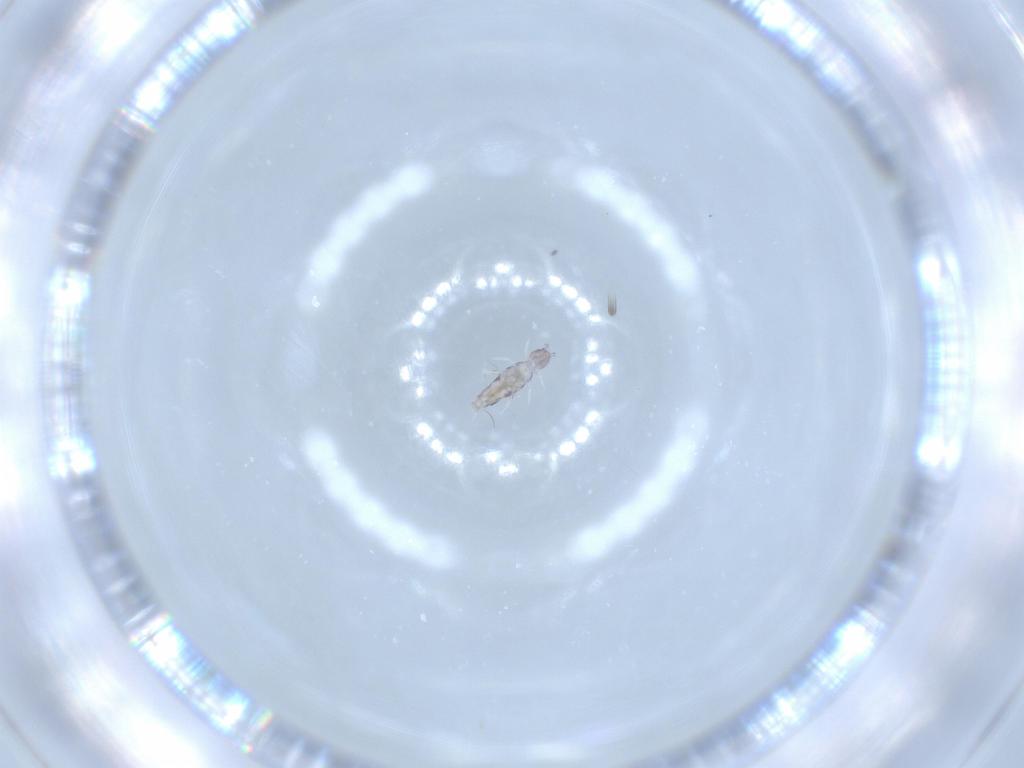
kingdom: Animalia
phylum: Arthropoda
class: Collembola
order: Entomobryomorpha
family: Entomobryidae
